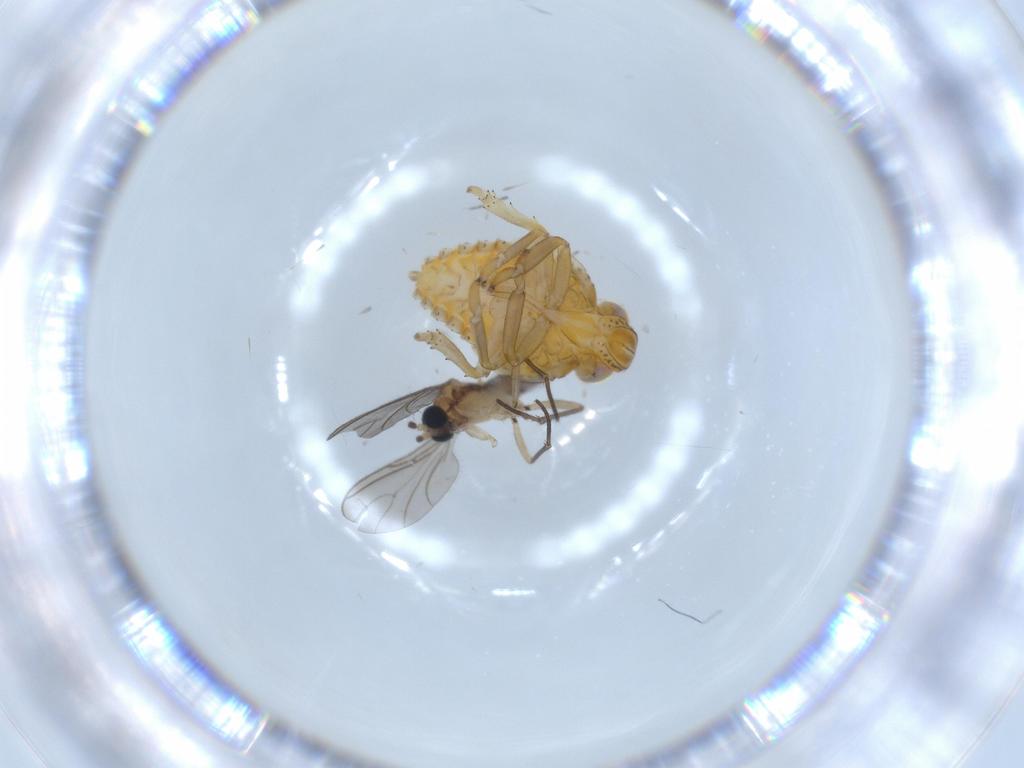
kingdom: Animalia
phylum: Arthropoda
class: Insecta
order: Hemiptera
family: Issidae
